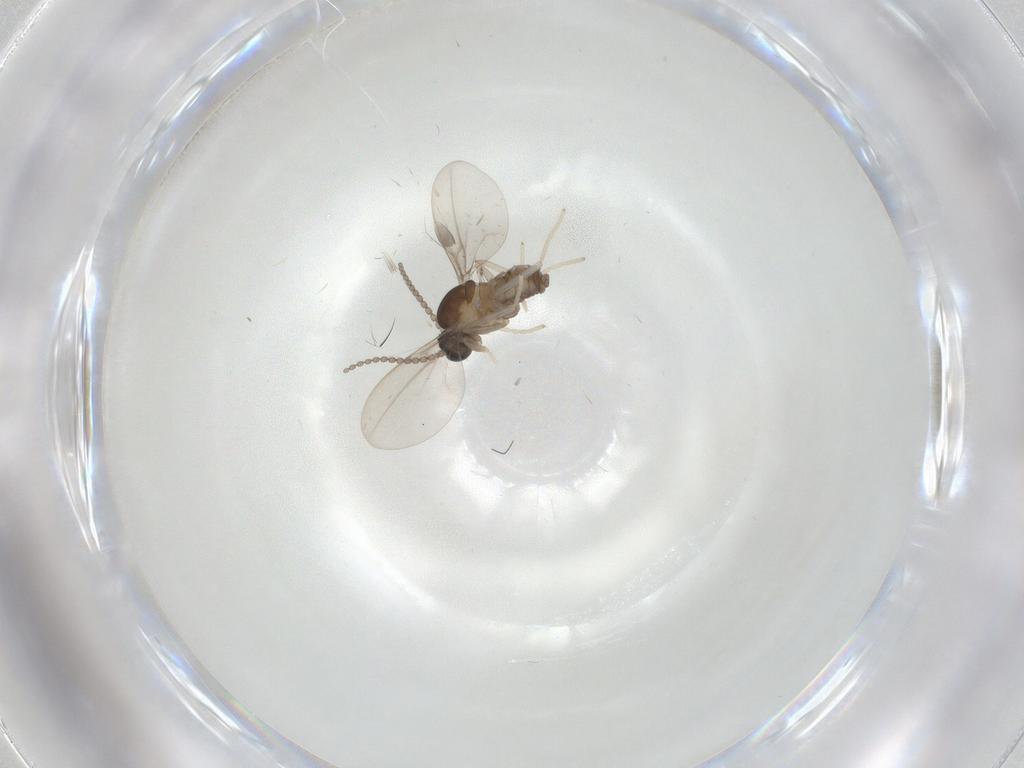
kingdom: Animalia
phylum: Arthropoda
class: Insecta
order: Diptera
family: Cecidomyiidae
